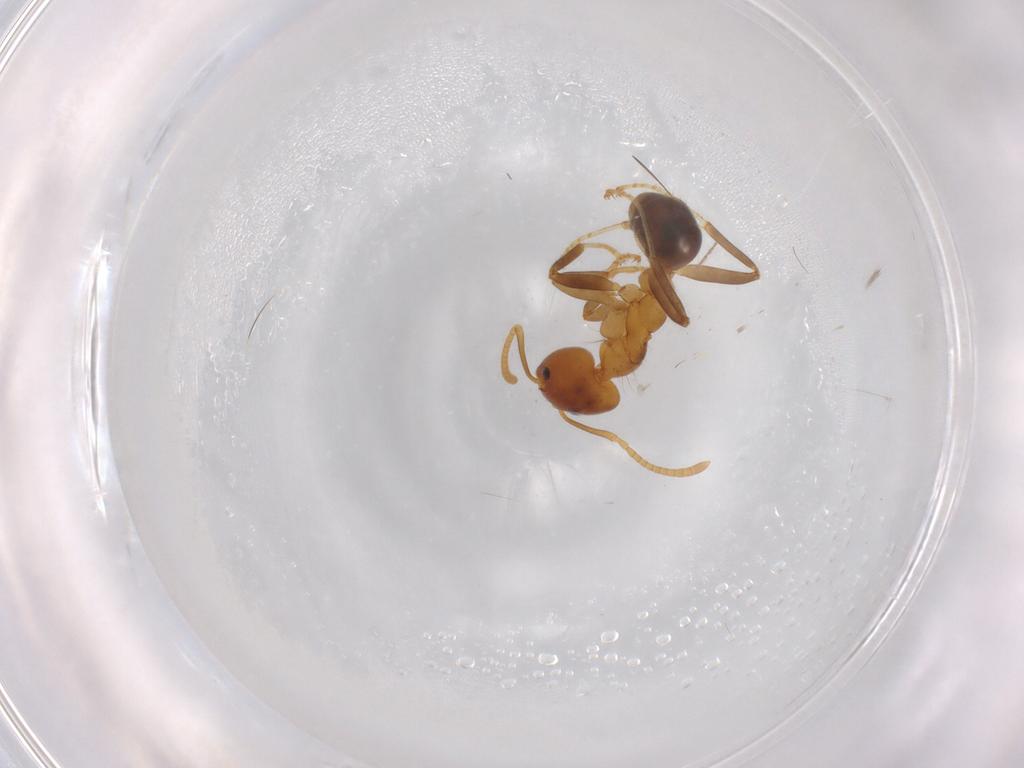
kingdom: Animalia
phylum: Arthropoda
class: Insecta
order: Hymenoptera
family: Formicidae
